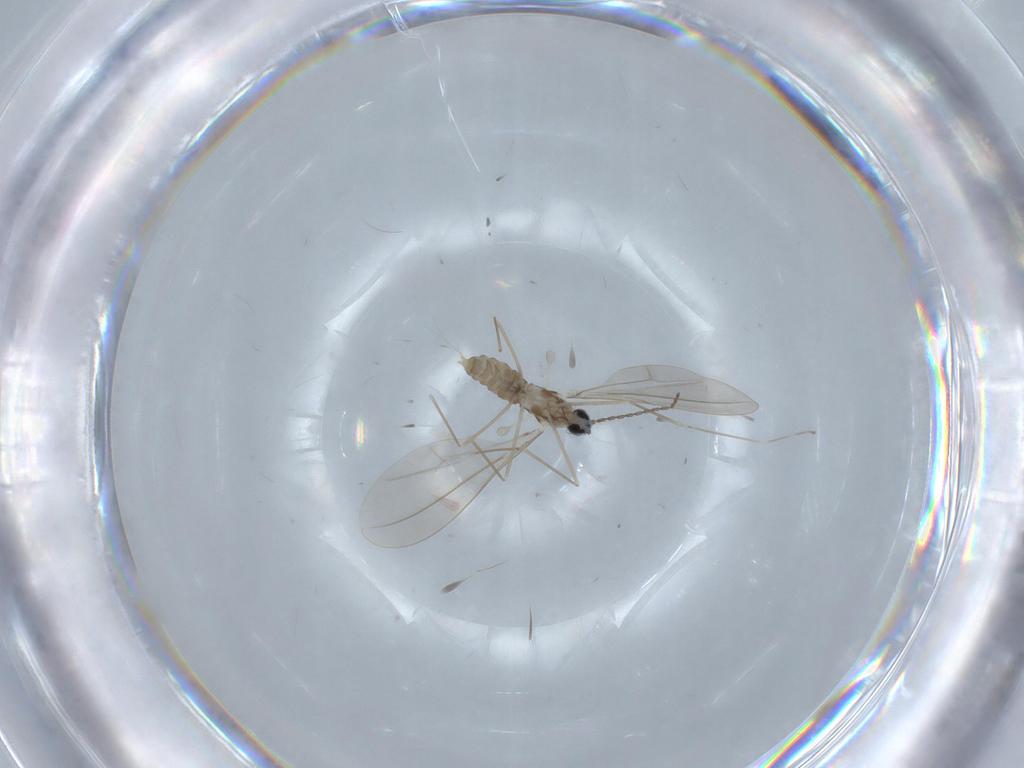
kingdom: Animalia
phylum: Arthropoda
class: Insecta
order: Diptera
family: Cecidomyiidae
